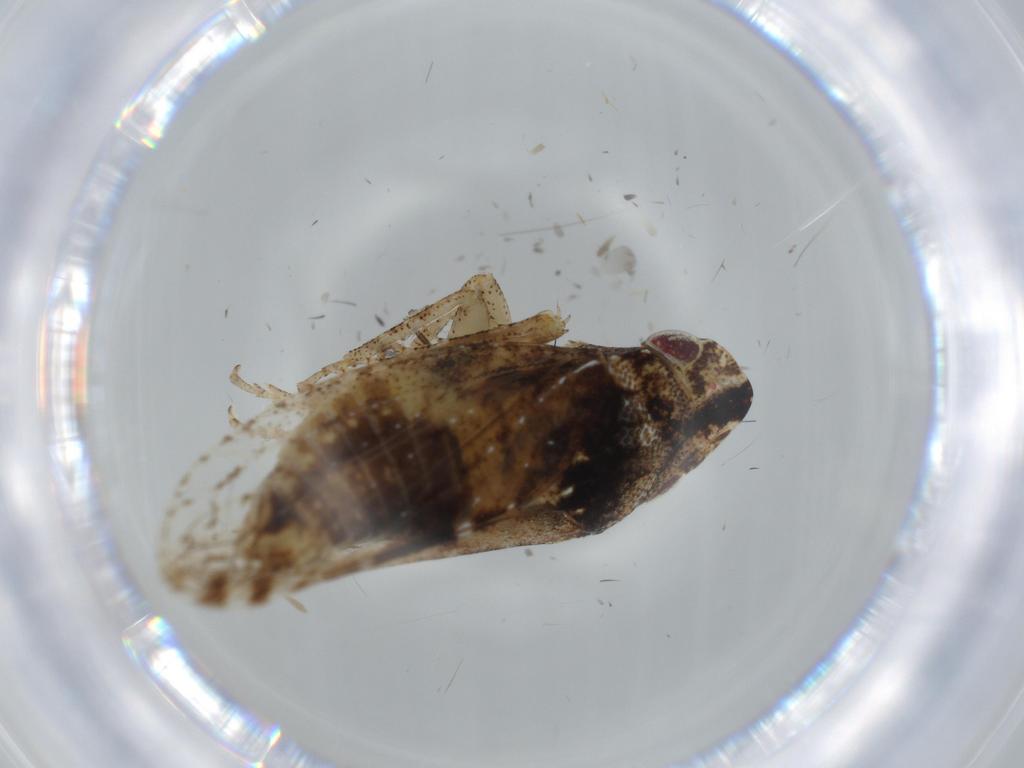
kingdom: Animalia
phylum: Arthropoda
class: Insecta
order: Hemiptera
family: Cicadellidae
